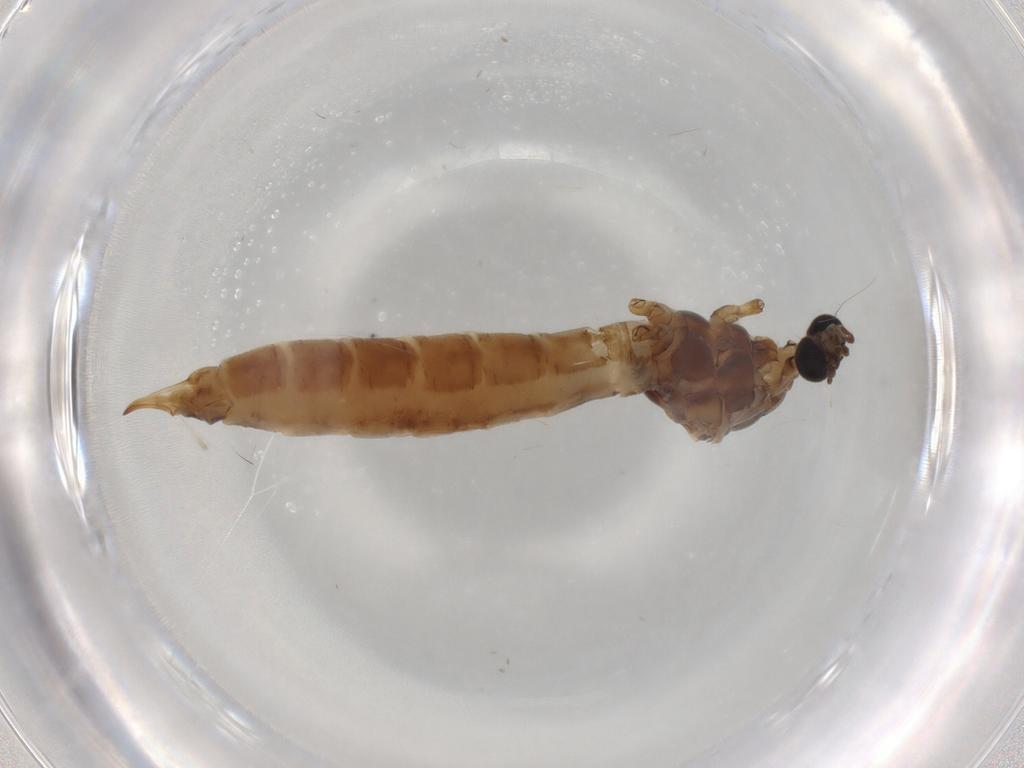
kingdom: Animalia
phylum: Arthropoda
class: Insecta
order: Diptera
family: Limoniidae
